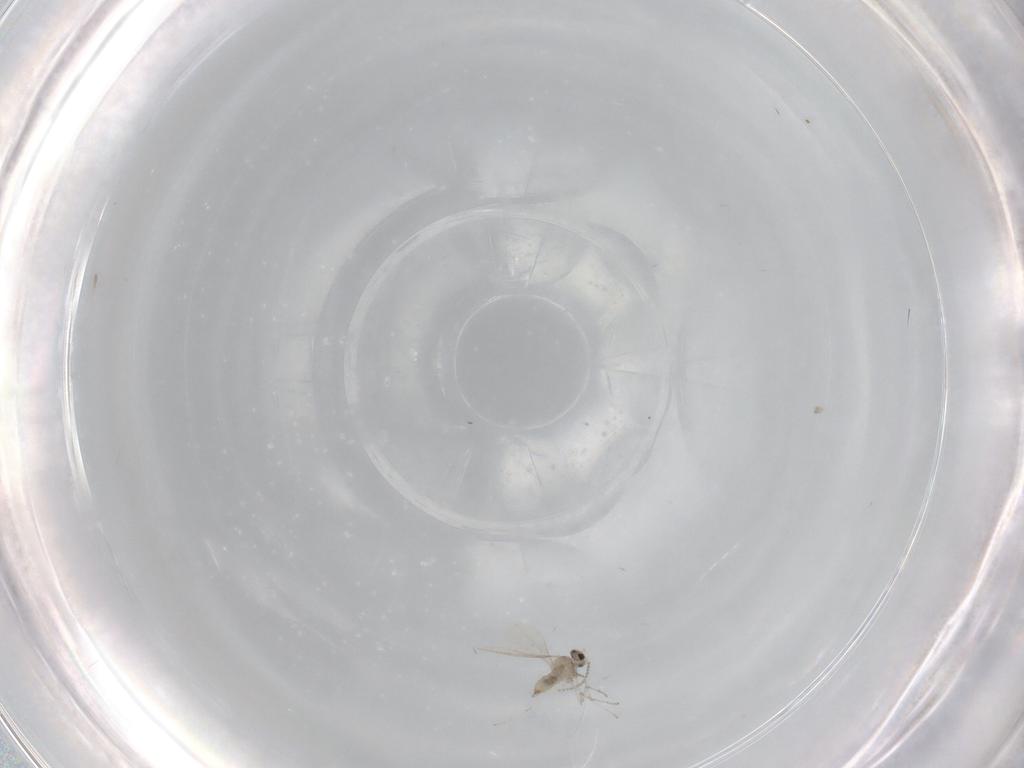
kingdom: Animalia
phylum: Arthropoda
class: Insecta
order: Diptera
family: Cecidomyiidae
